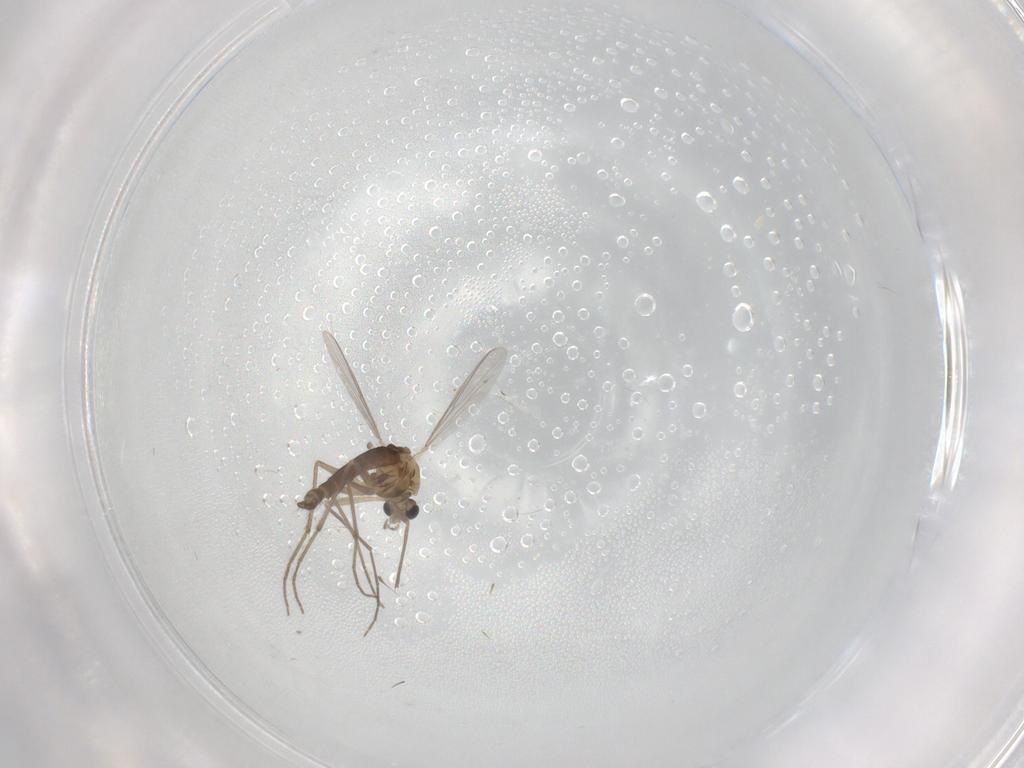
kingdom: Animalia
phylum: Arthropoda
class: Insecta
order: Diptera
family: Chironomidae
